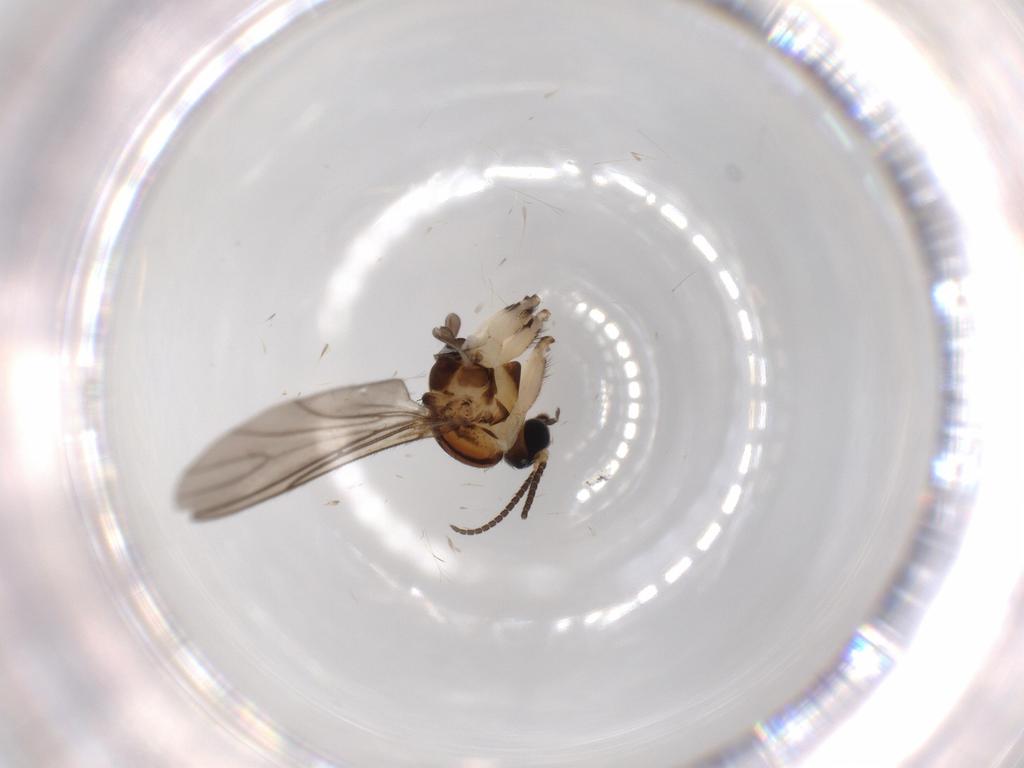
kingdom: Animalia
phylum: Arthropoda
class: Insecta
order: Diptera
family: Sciaridae
